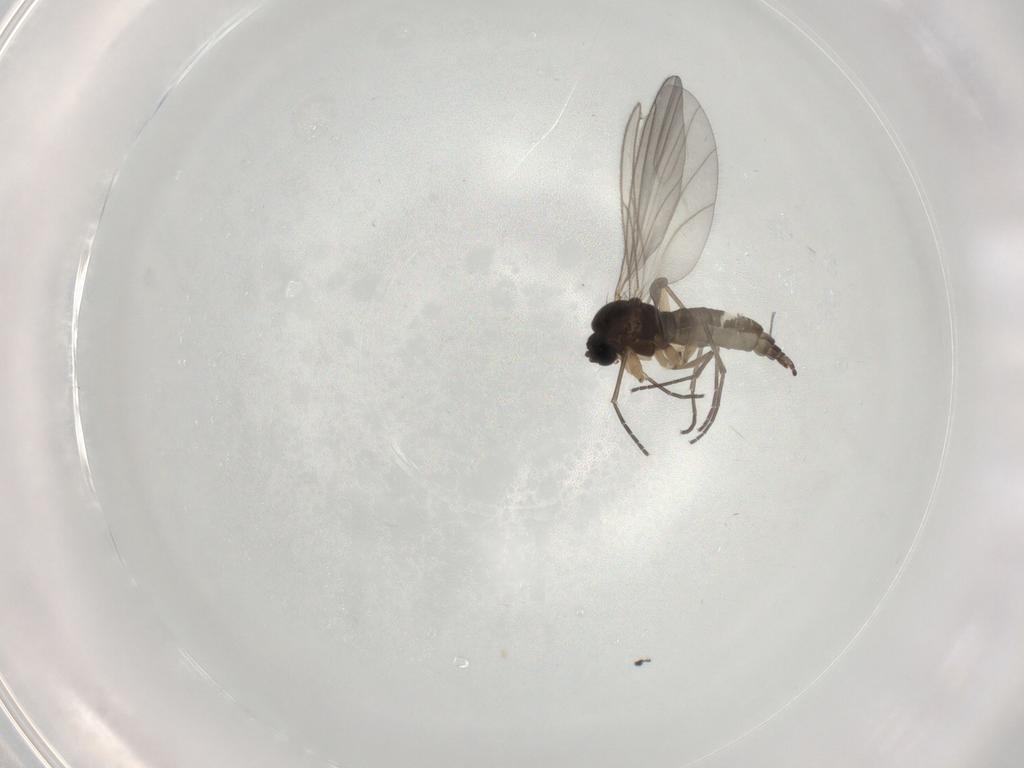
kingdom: Animalia
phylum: Arthropoda
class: Insecta
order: Diptera
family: Sciaridae
